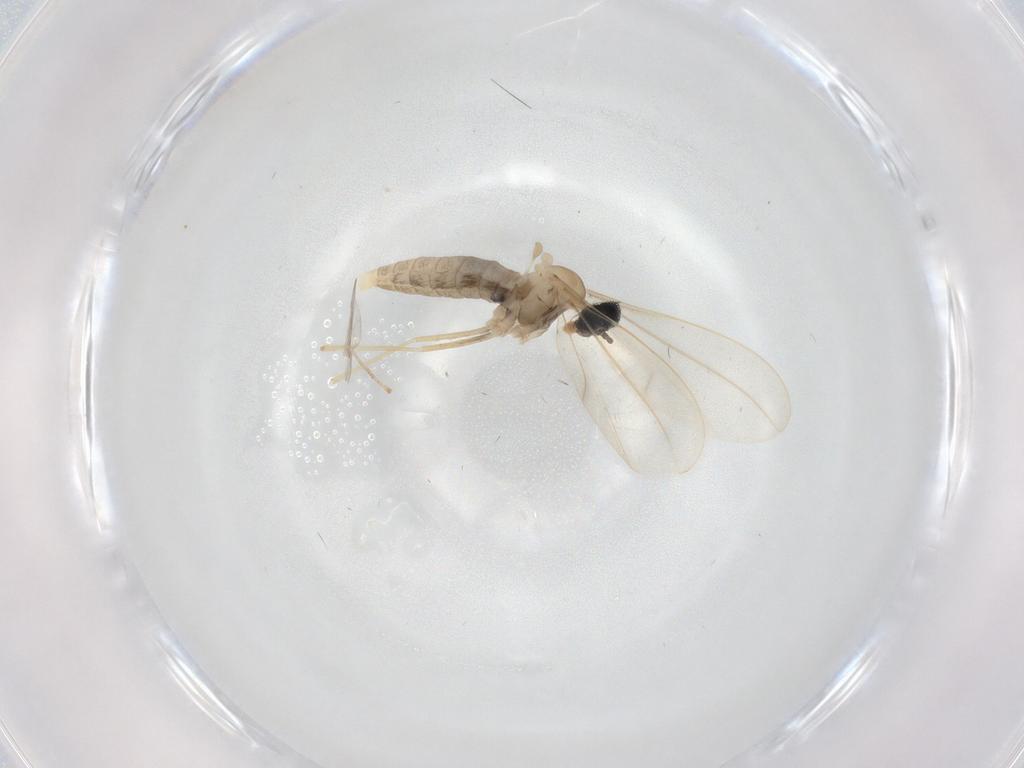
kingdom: Animalia
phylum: Arthropoda
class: Insecta
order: Diptera
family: Cecidomyiidae
